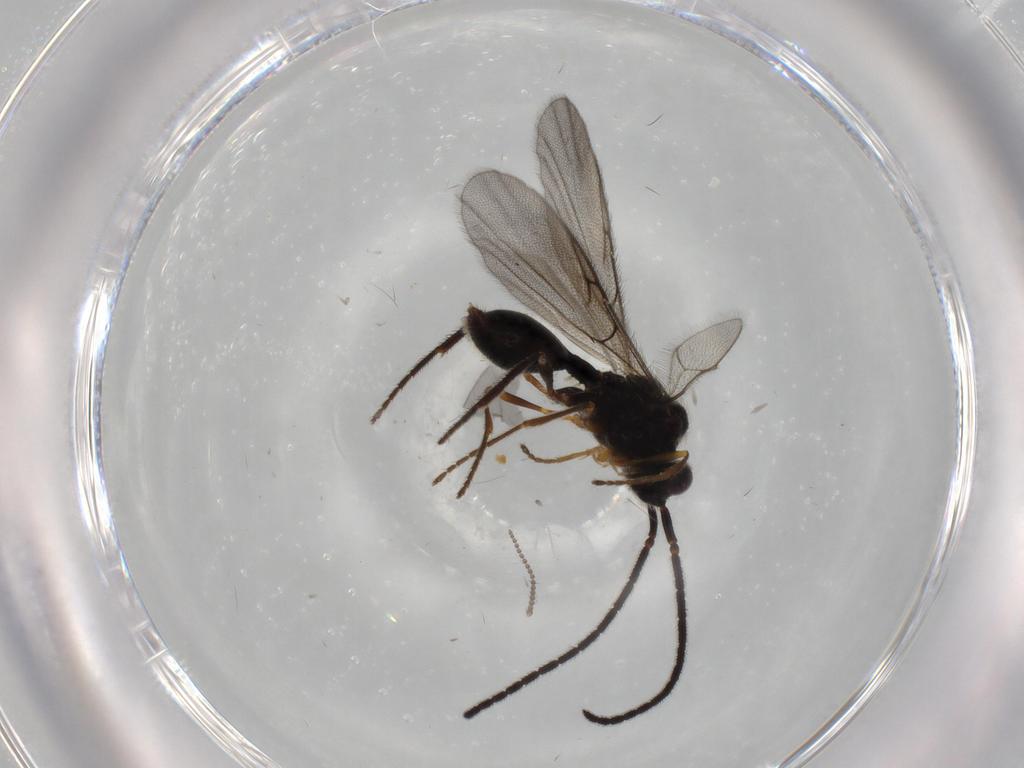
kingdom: Animalia
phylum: Arthropoda
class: Insecta
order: Hymenoptera
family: Diapriidae
